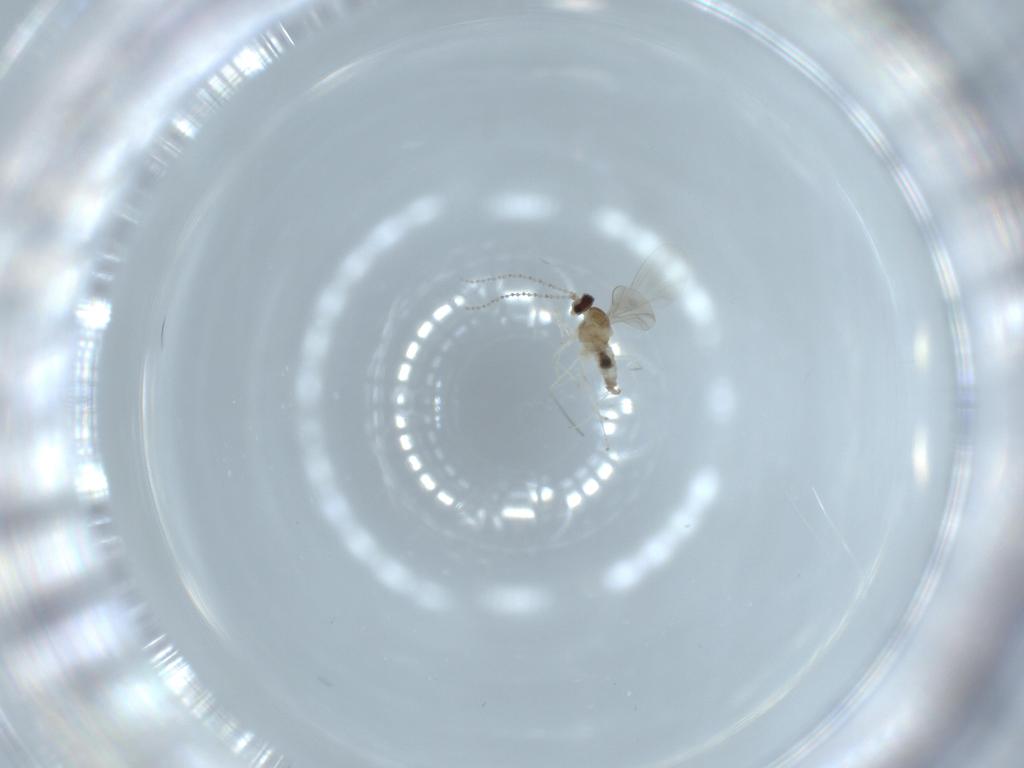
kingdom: Animalia
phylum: Arthropoda
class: Insecta
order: Diptera
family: Cecidomyiidae
